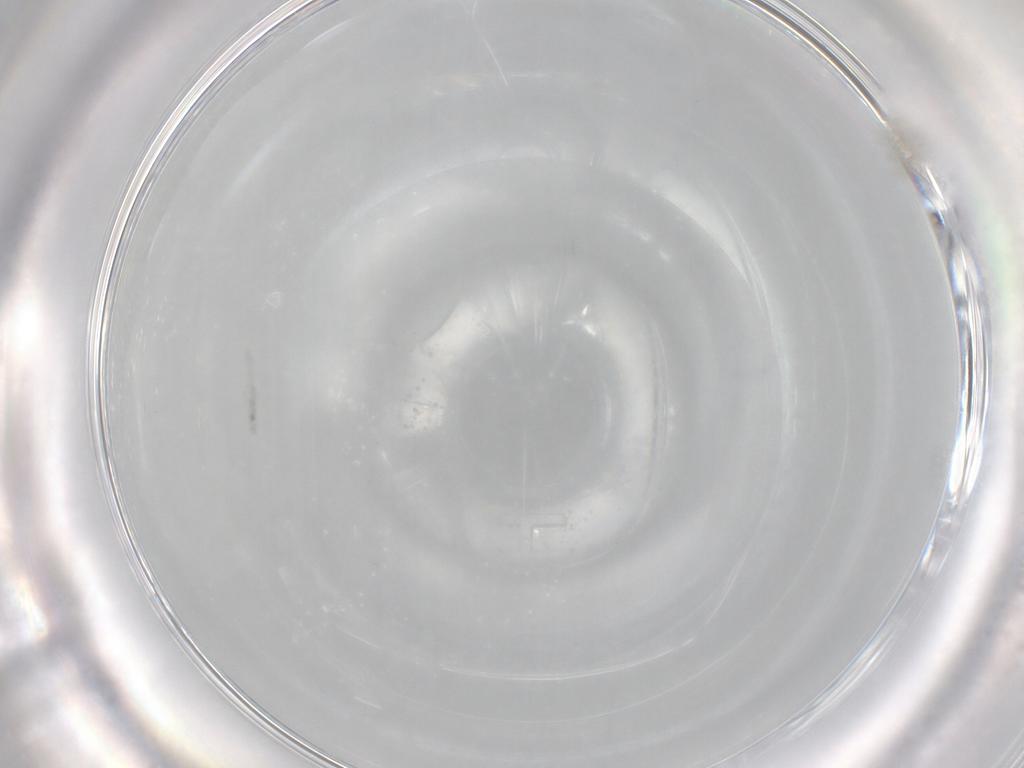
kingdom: Animalia
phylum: Arthropoda
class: Insecta
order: Diptera
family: Cecidomyiidae
